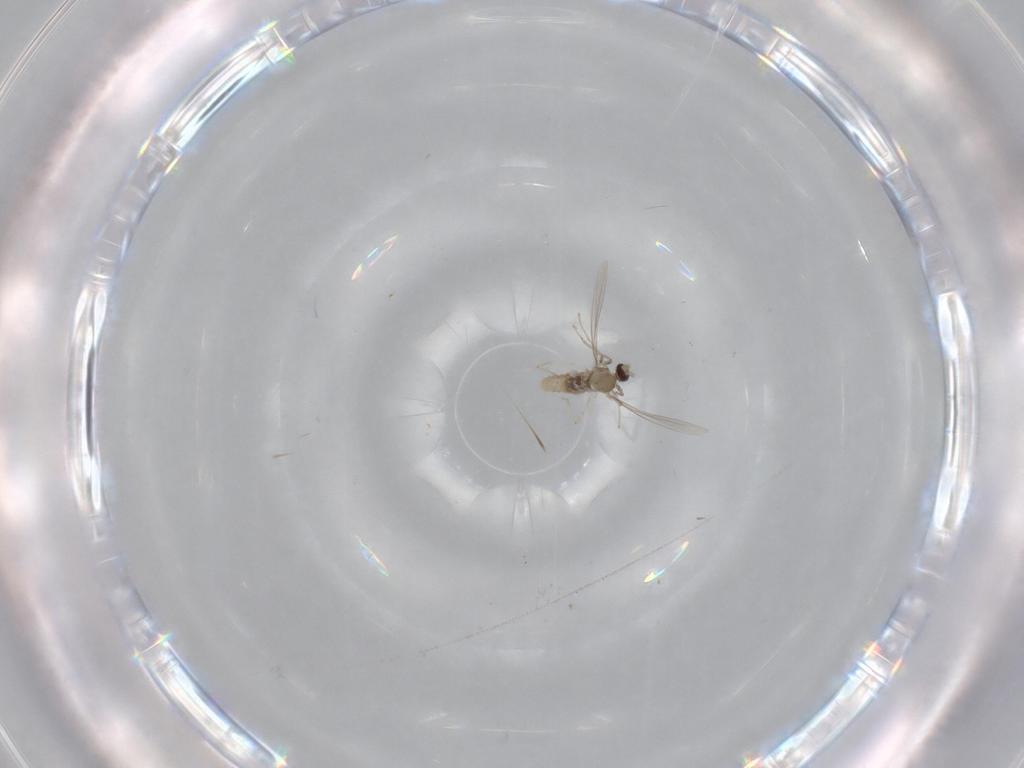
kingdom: Animalia
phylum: Arthropoda
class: Insecta
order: Diptera
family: Cecidomyiidae
